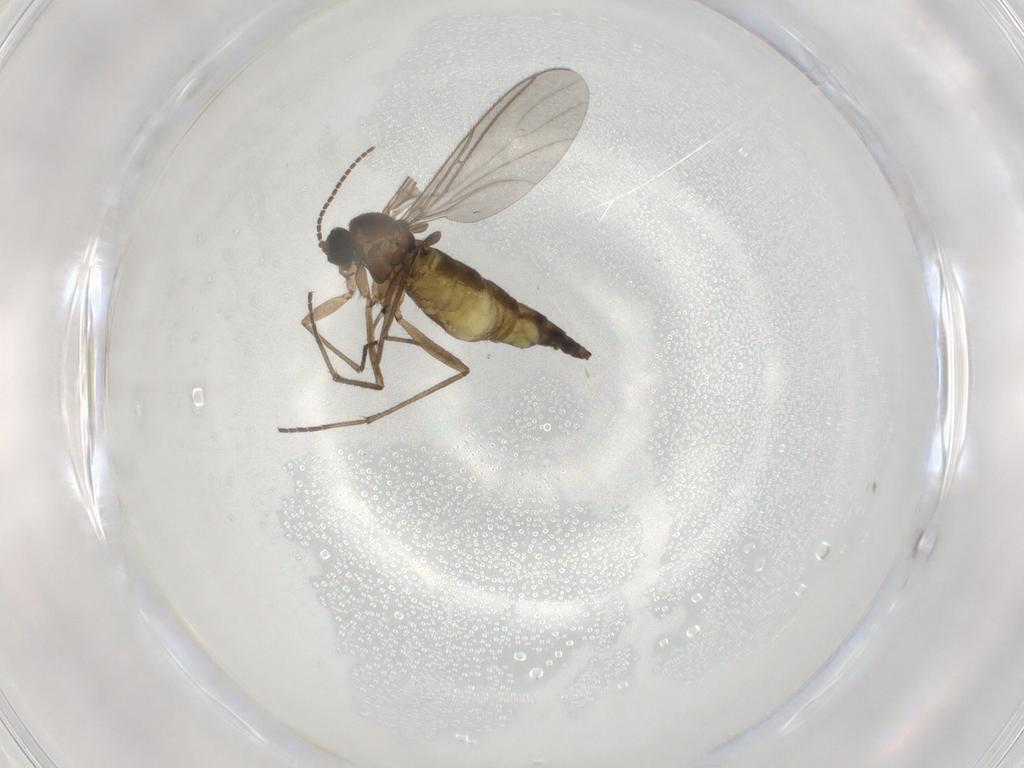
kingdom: Animalia
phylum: Arthropoda
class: Insecta
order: Diptera
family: Sciaridae
